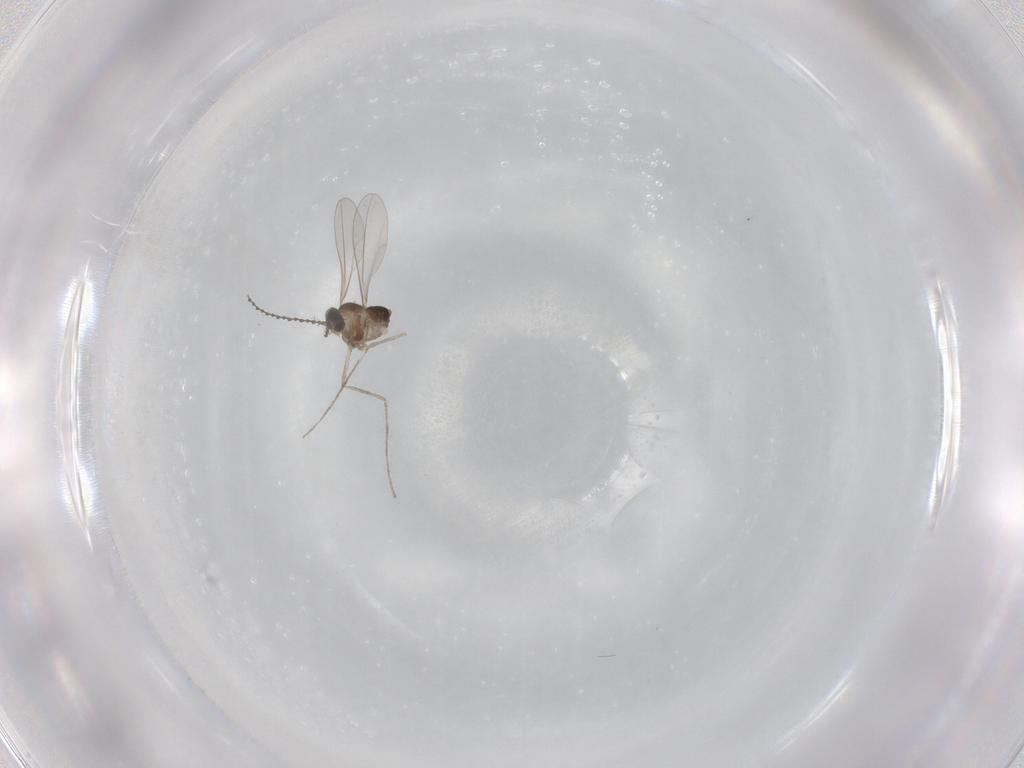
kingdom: Animalia
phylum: Arthropoda
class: Insecta
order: Diptera
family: Cecidomyiidae
